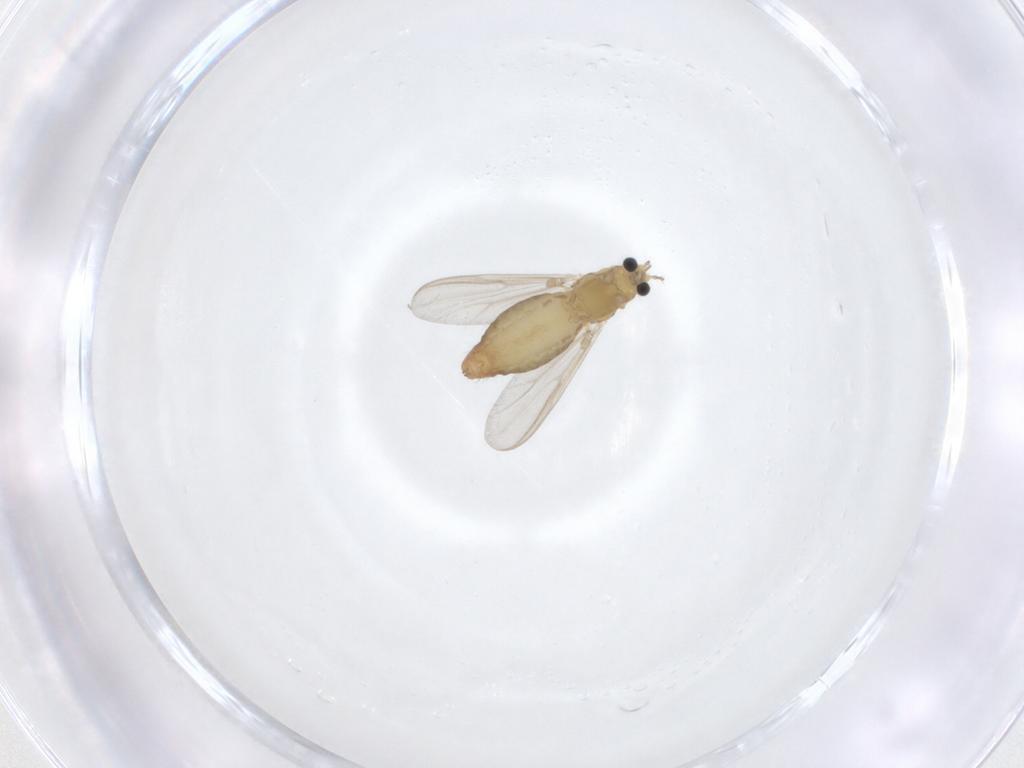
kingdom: Animalia
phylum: Arthropoda
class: Insecta
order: Diptera
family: Chironomidae
